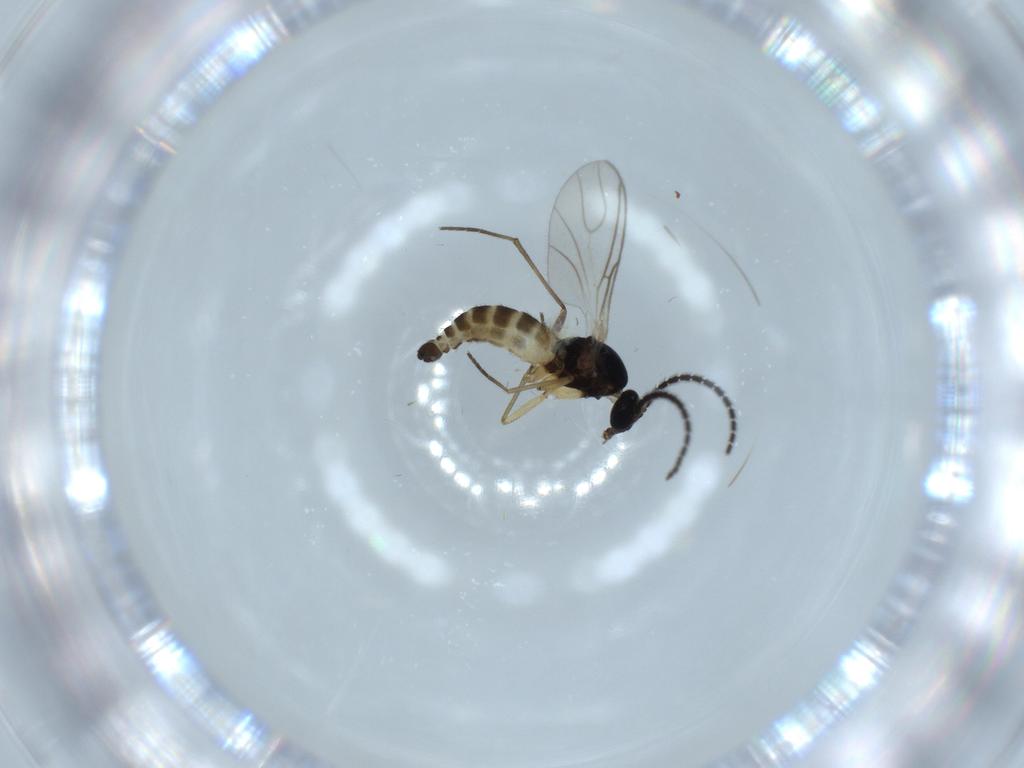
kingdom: Animalia
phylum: Arthropoda
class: Insecta
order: Diptera
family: Sciaridae
